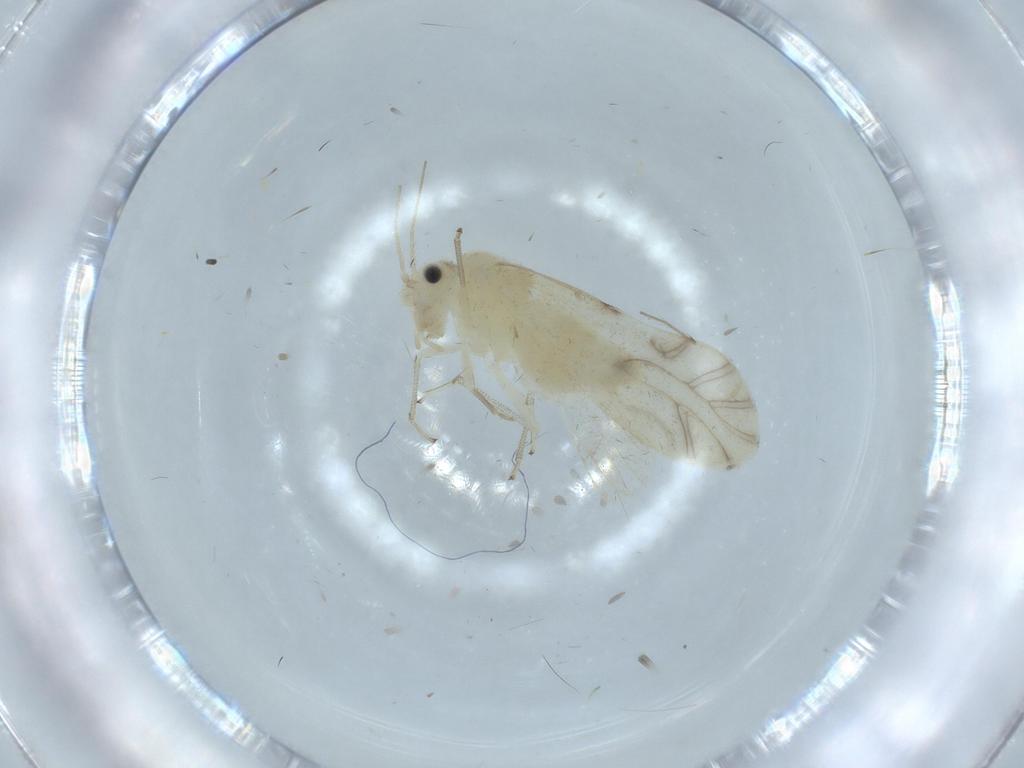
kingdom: Animalia
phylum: Arthropoda
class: Insecta
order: Psocodea
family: Caeciliusidae
